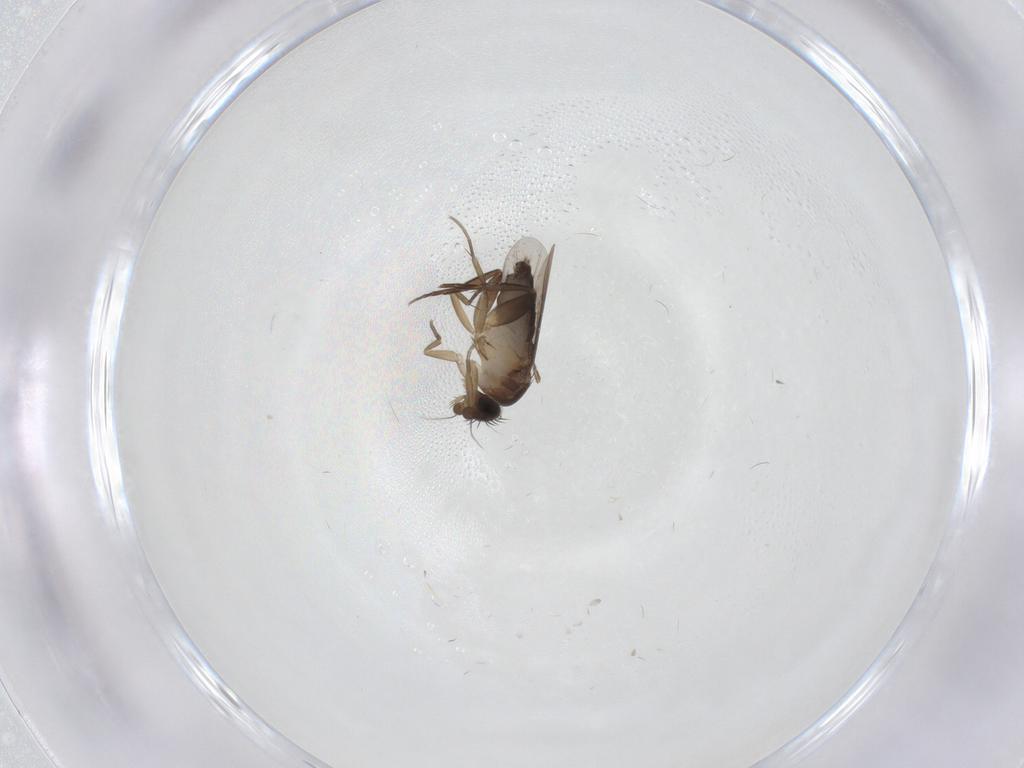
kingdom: Animalia
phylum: Arthropoda
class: Insecta
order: Diptera
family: Phoridae
